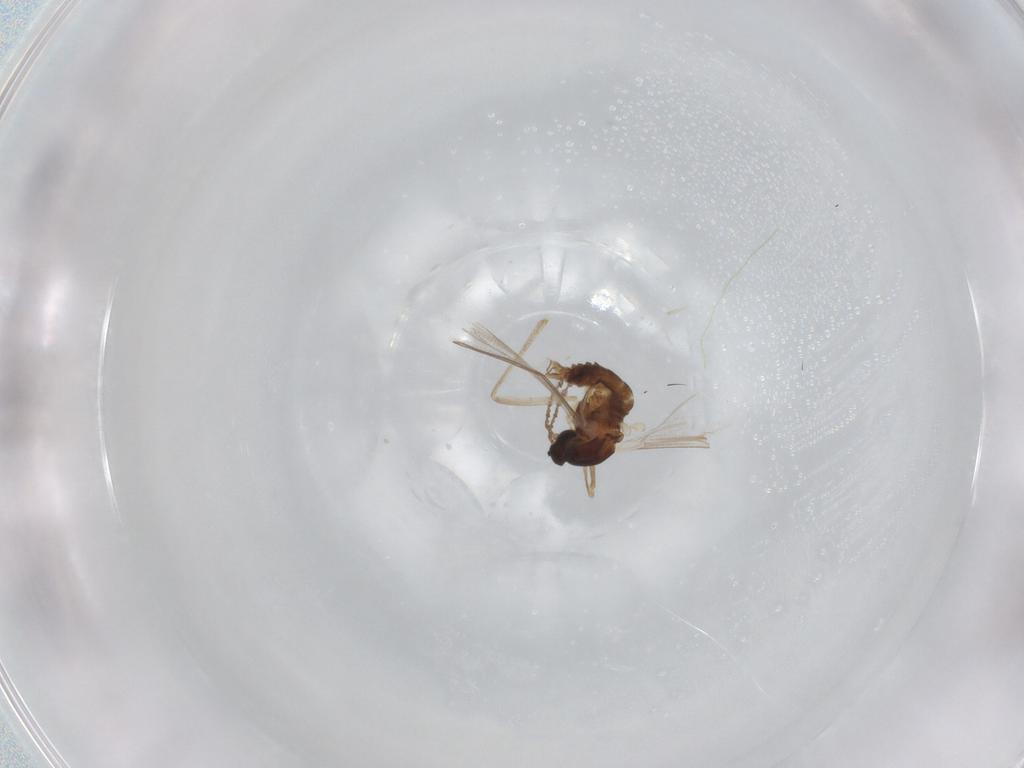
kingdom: Animalia
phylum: Arthropoda
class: Insecta
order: Diptera
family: Cecidomyiidae
